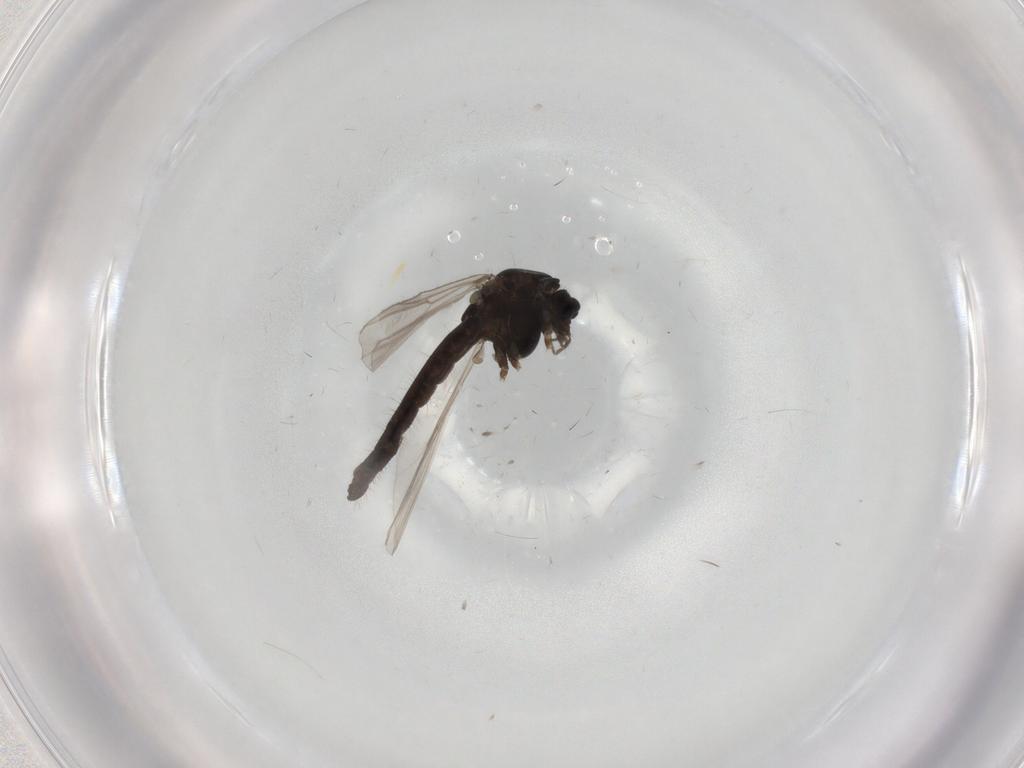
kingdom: Animalia
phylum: Arthropoda
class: Insecta
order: Diptera
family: Chironomidae
